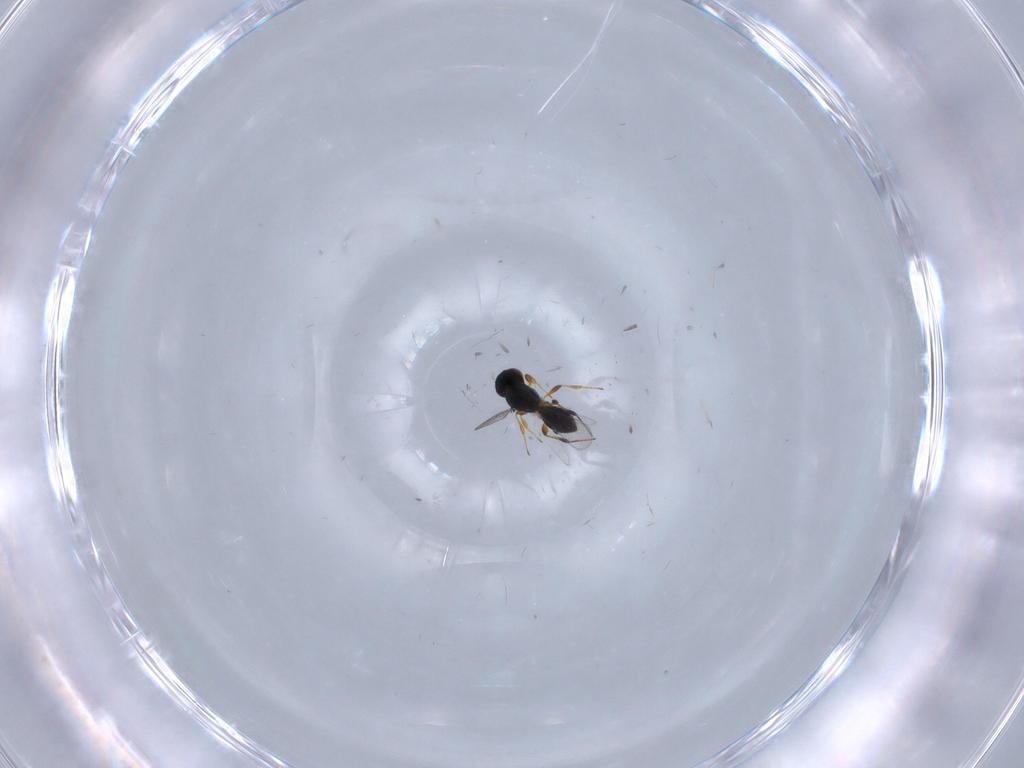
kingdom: Animalia
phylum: Arthropoda
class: Insecta
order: Hymenoptera
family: Platygastridae
